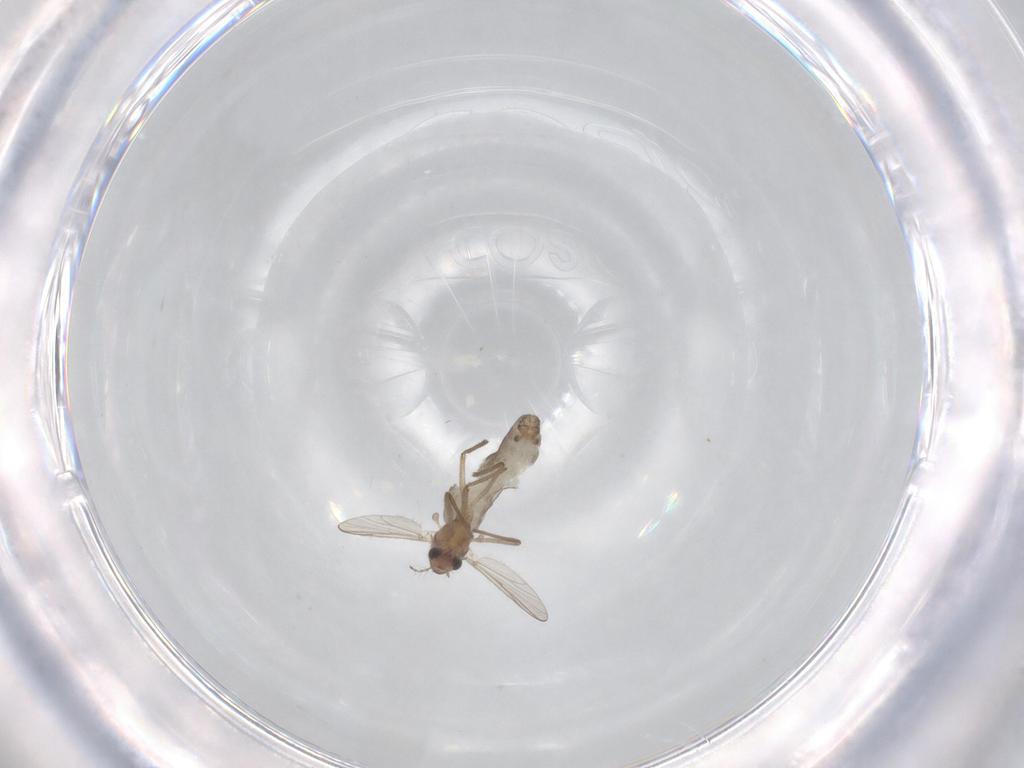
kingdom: Animalia
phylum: Arthropoda
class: Insecta
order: Diptera
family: Chironomidae
